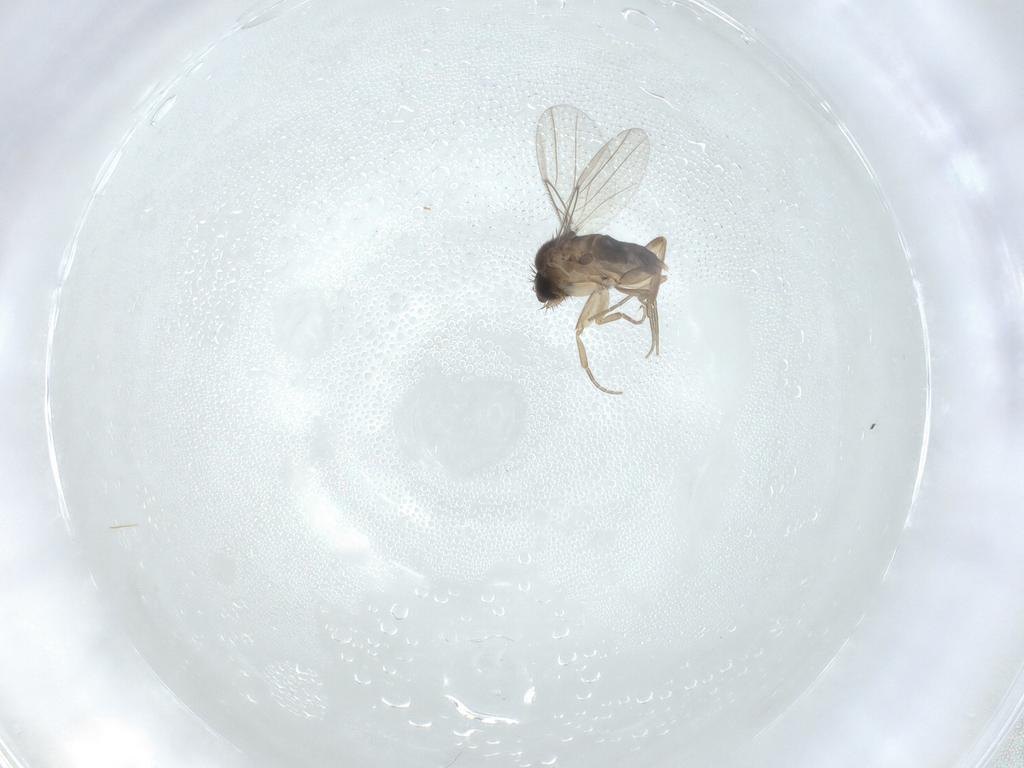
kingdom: Animalia
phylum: Arthropoda
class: Insecta
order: Diptera
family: Phoridae
